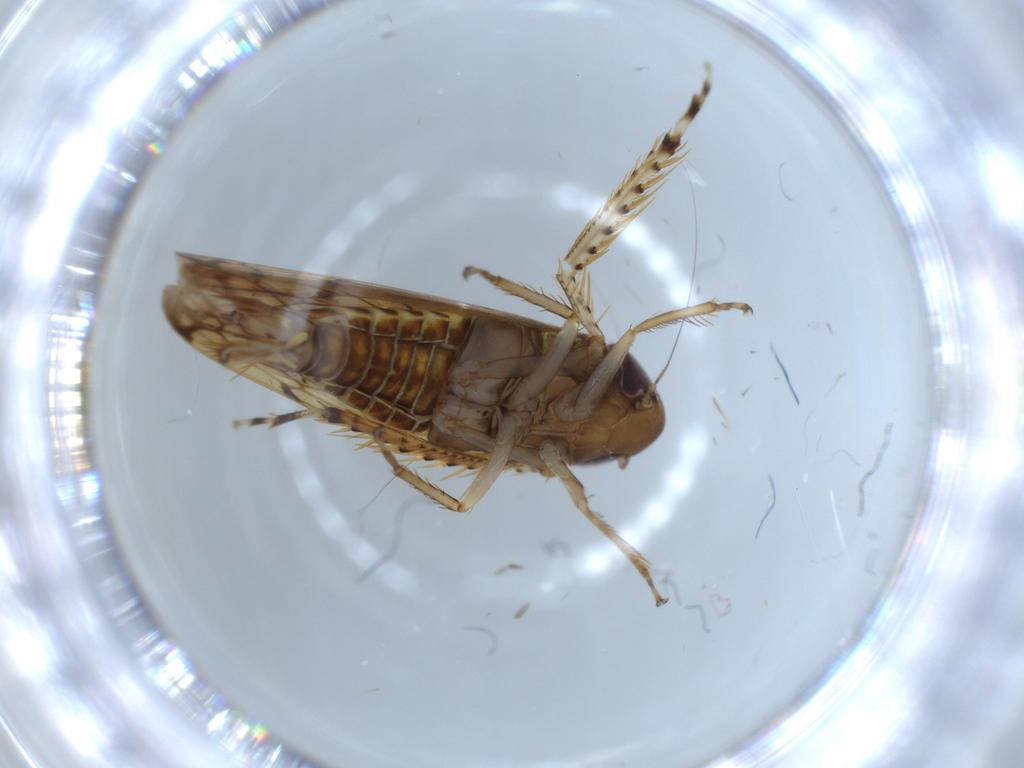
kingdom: Animalia
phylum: Arthropoda
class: Insecta
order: Hemiptera
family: Cicadellidae
